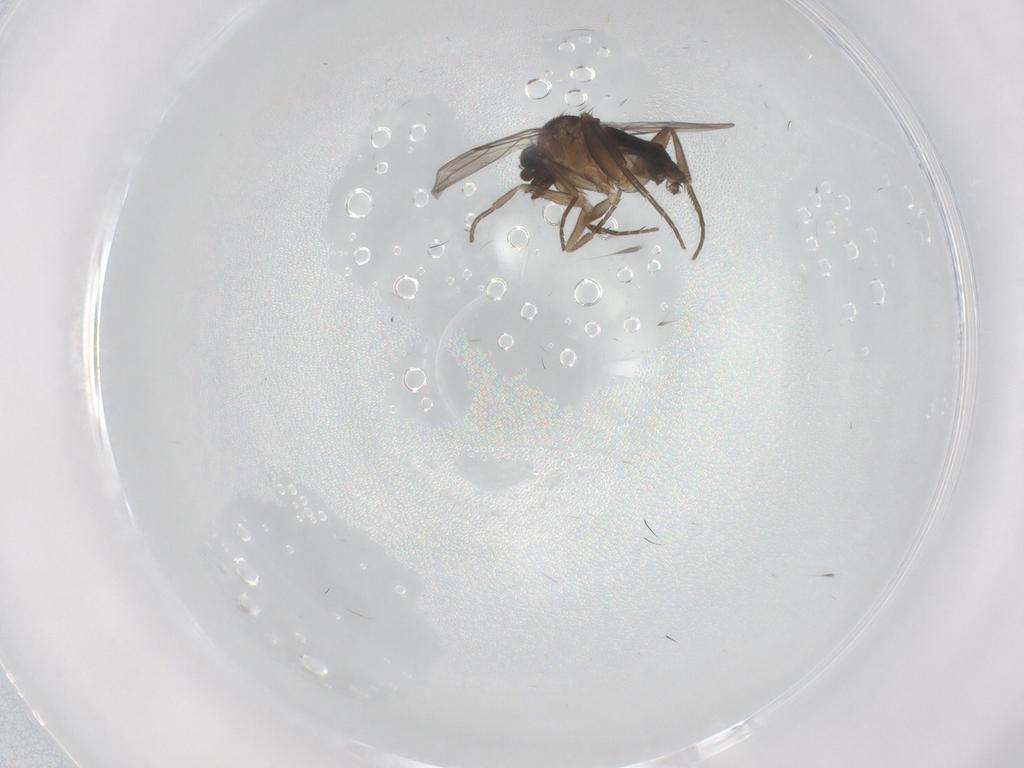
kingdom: Animalia
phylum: Arthropoda
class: Insecta
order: Diptera
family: Phoridae
